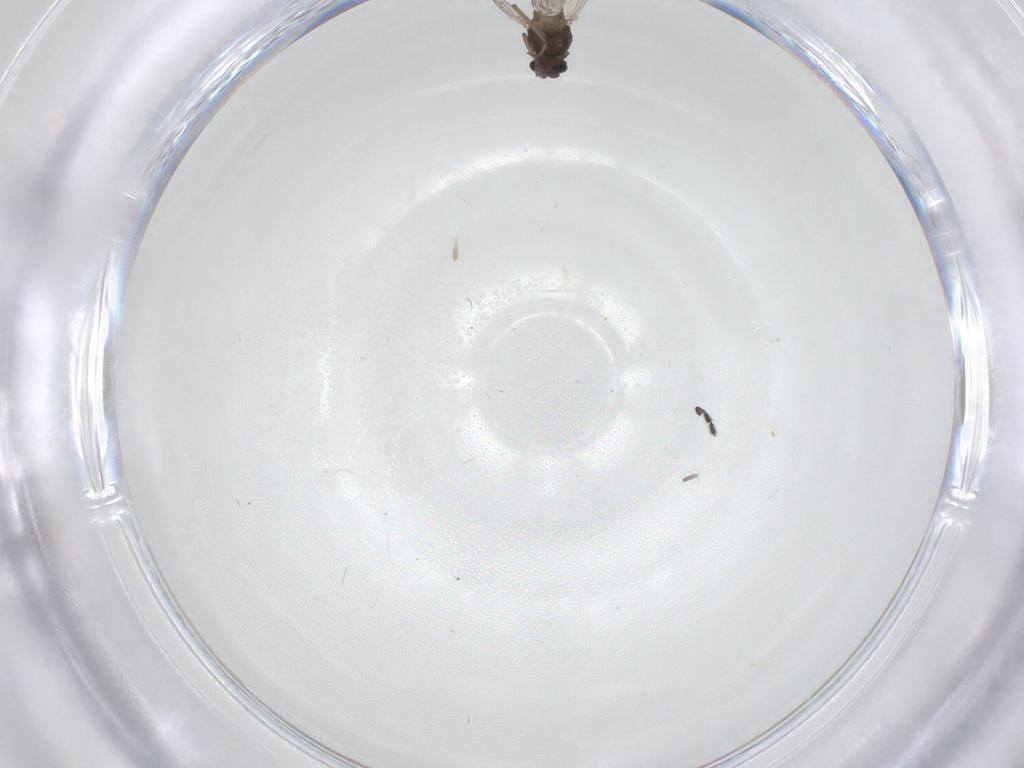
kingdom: Animalia
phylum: Arthropoda
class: Insecta
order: Diptera
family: Chironomidae
